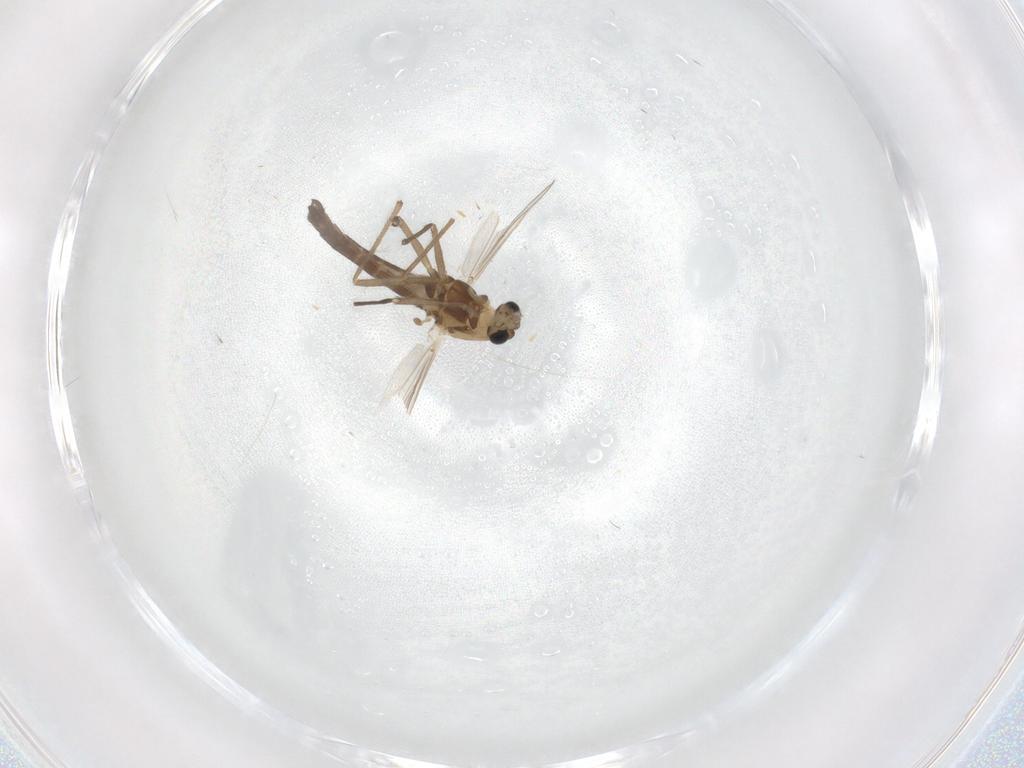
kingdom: Animalia
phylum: Arthropoda
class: Insecta
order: Diptera
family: Chironomidae
